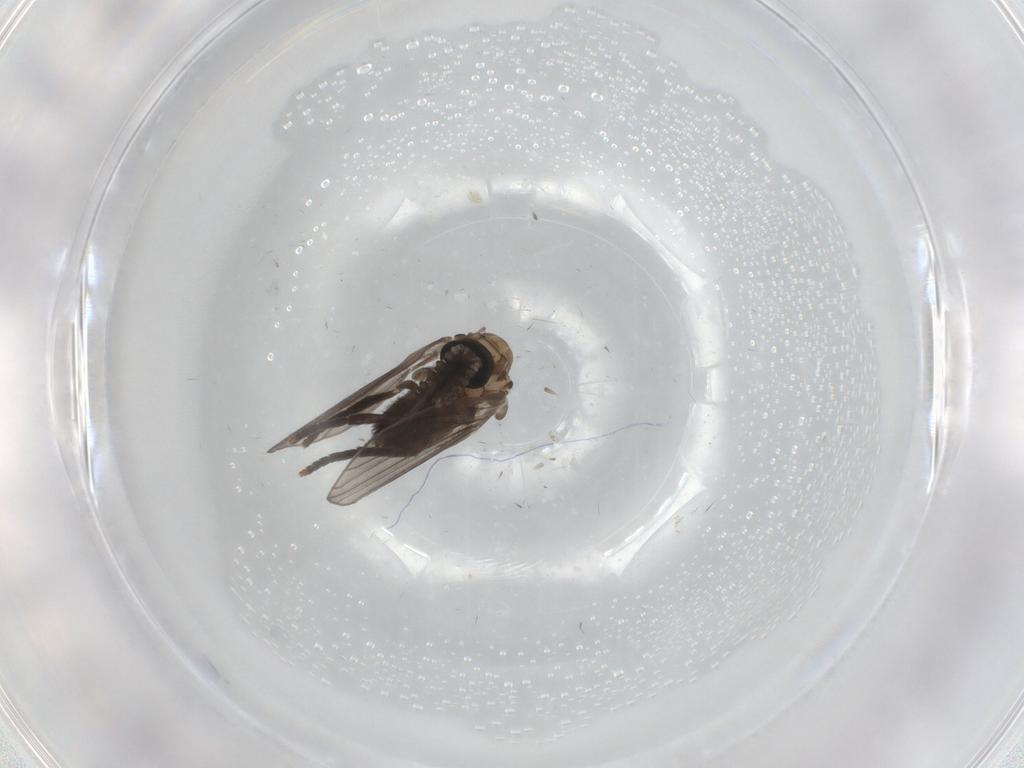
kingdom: Animalia
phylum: Arthropoda
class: Insecta
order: Diptera
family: Psychodidae
